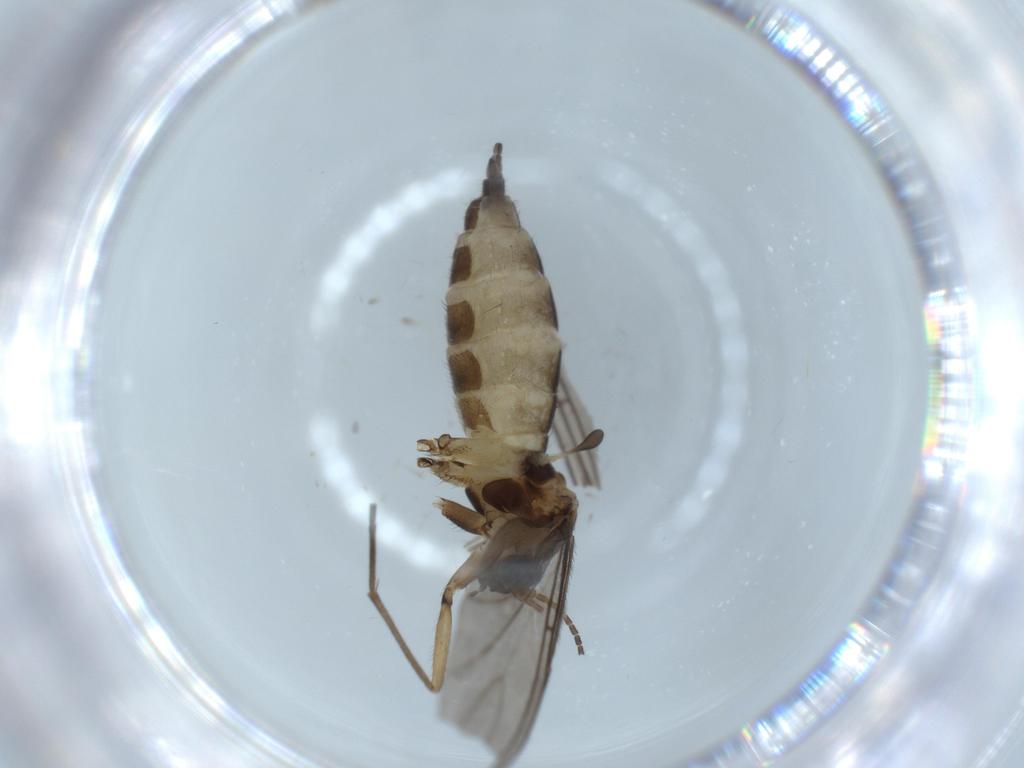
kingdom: Animalia
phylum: Arthropoda
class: Insecta
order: Diptera
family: Sciaridae
